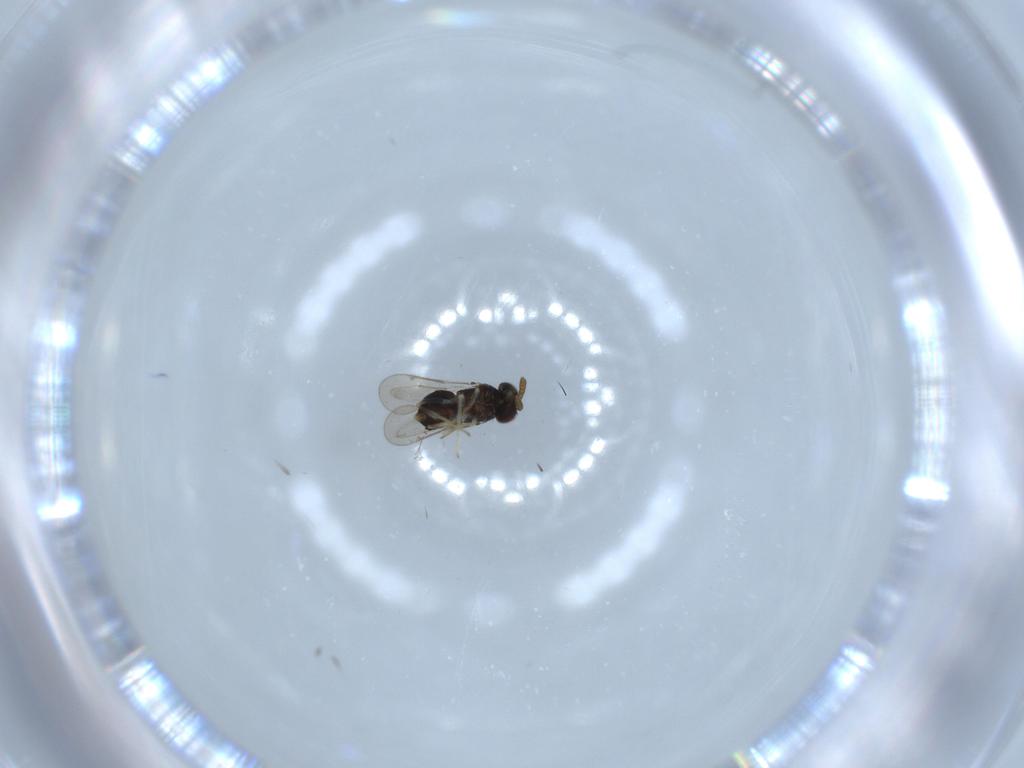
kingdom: Animalia
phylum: Arthropoda
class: Insecta
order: Hymenoptera
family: Aphelinidae
